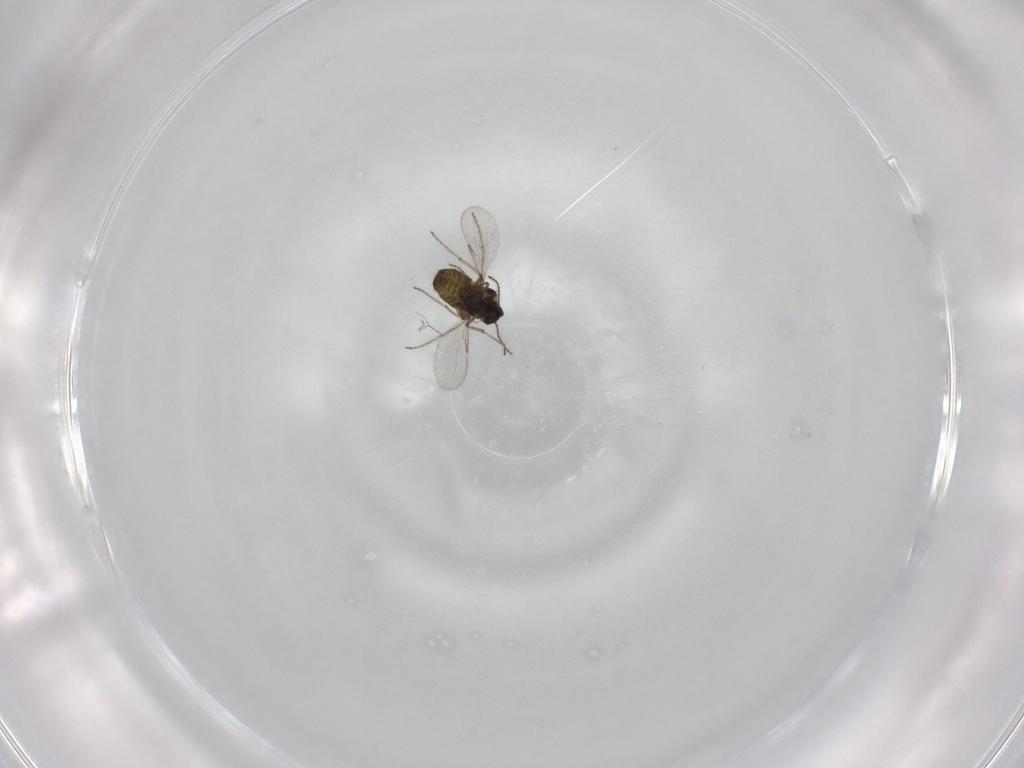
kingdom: Animalia
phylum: Arthropoda
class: Insecta
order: Diptera
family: Ceratopogonidae
